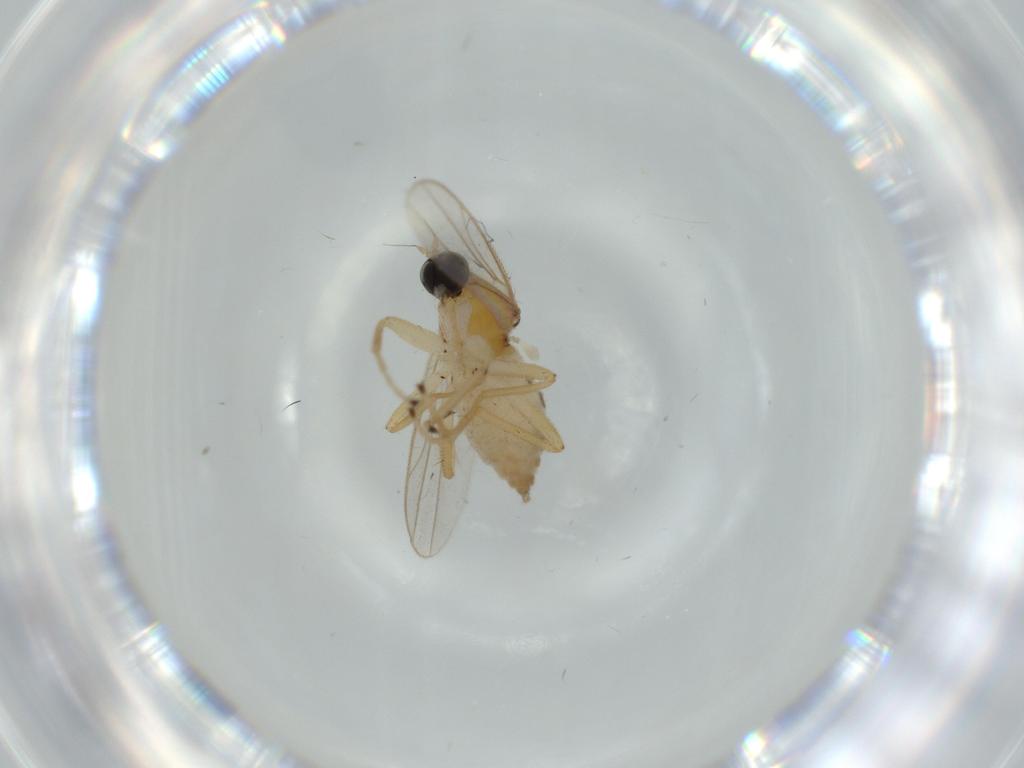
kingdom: Animalia
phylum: Arthropoda
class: Insecta
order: Diptera
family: Hybotidae
